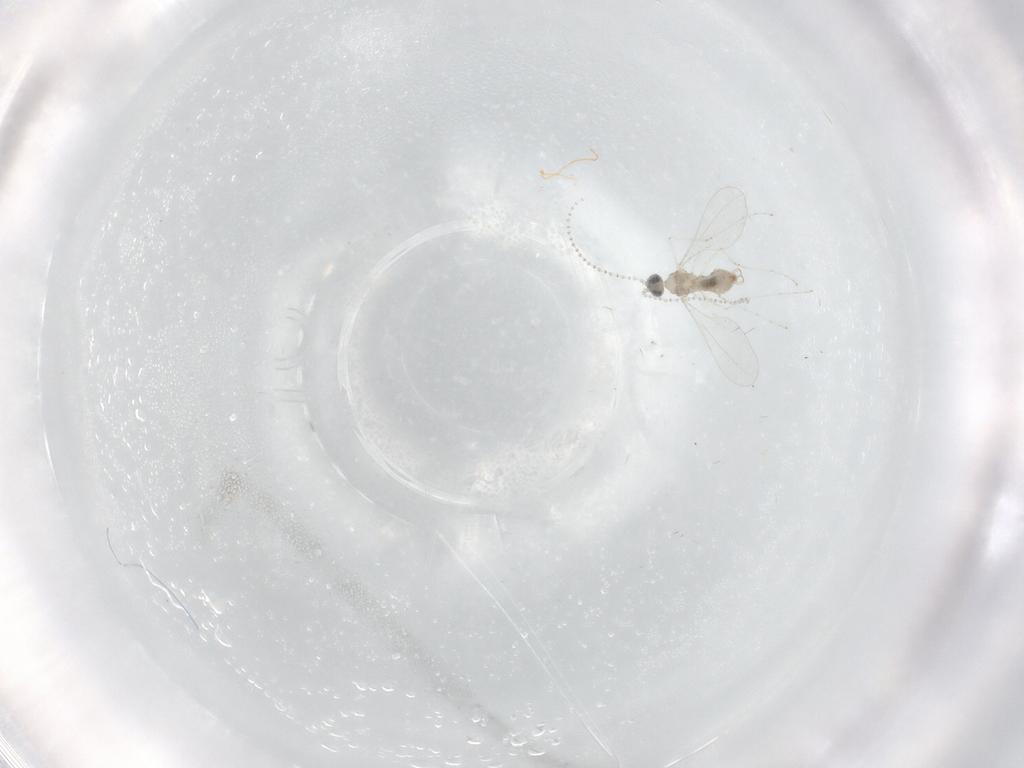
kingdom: Animalia
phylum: Arthropoda
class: Insecta
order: Diptera
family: Cecidomyiidae
